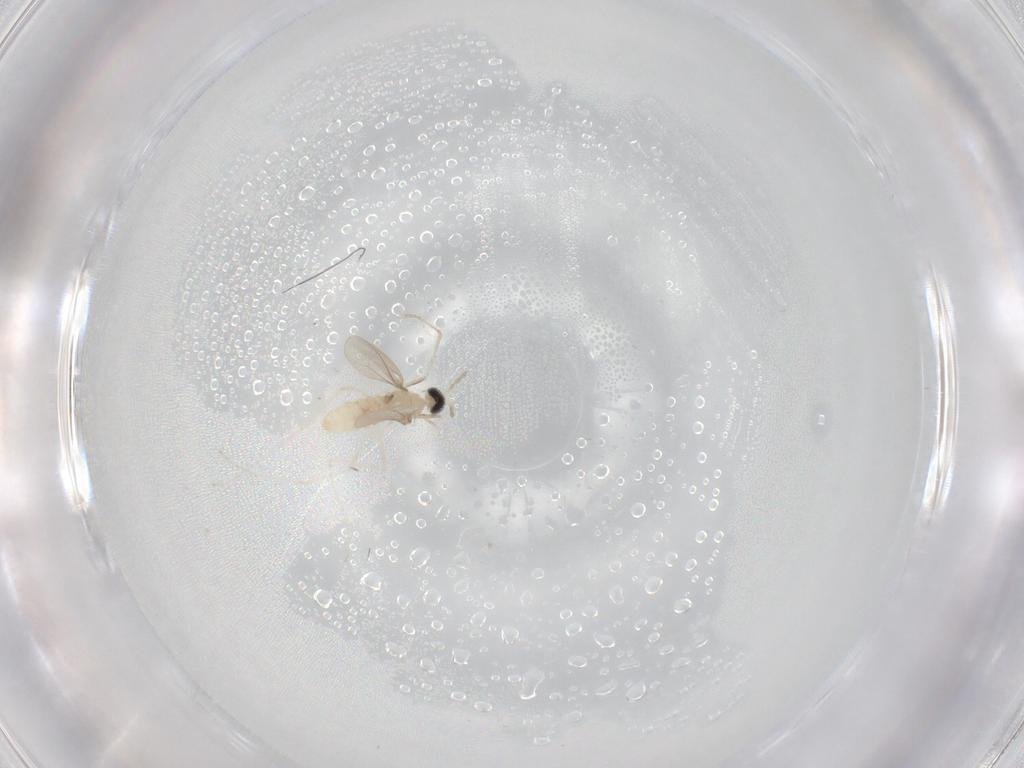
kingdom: Animalia
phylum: Arthropoda
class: Insecta
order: Diptera
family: Cecidomyiidae
